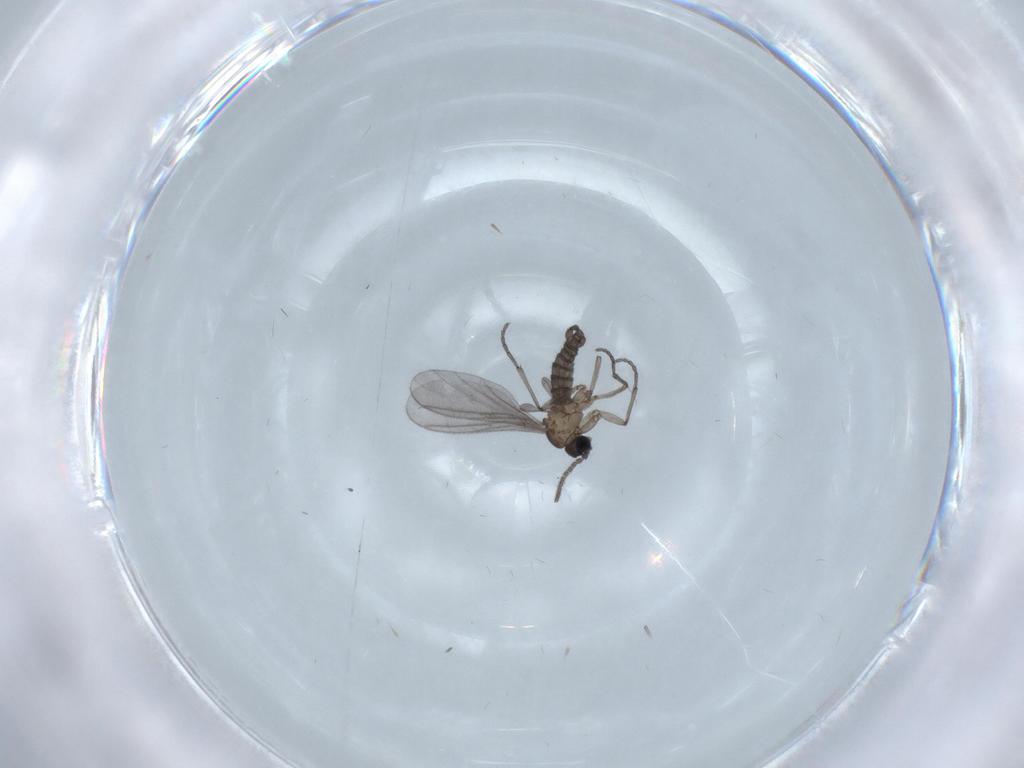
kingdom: Animalia
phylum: Arthropoda
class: Insecta
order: Diptera
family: Sciaridae
